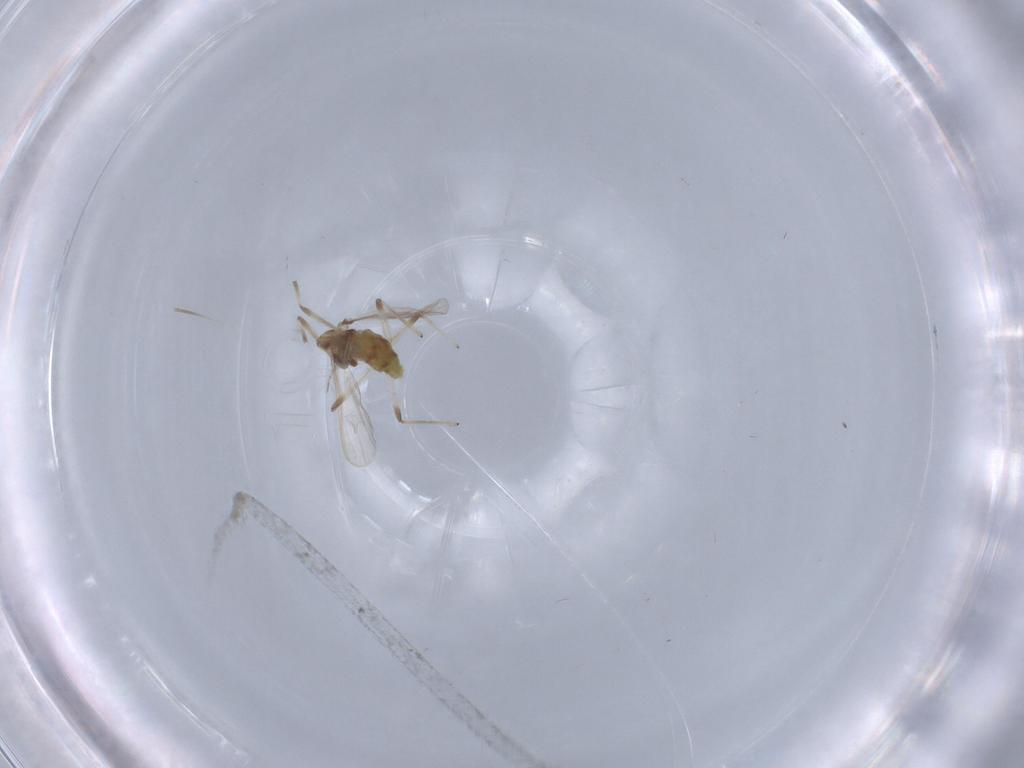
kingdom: Animalia
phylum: Arthropoda
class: Insecta
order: Diptera
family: Chironomidae
